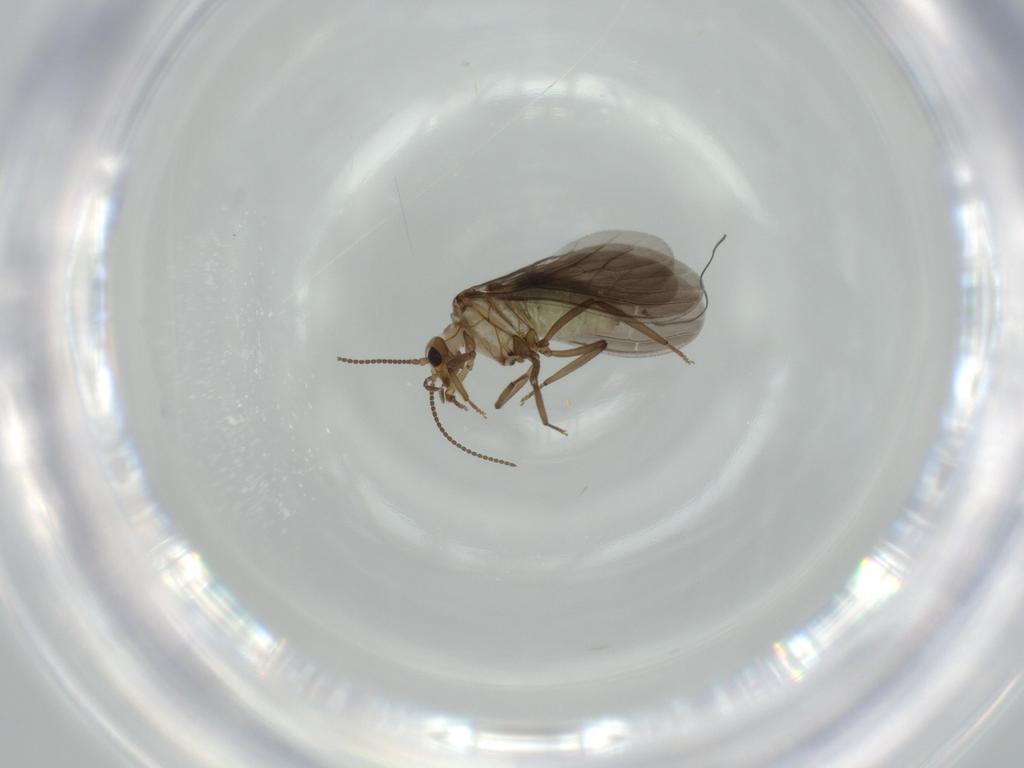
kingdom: Animalia
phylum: Arthropoda
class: Insecta
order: Neuroptera
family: Coniopterygidae
